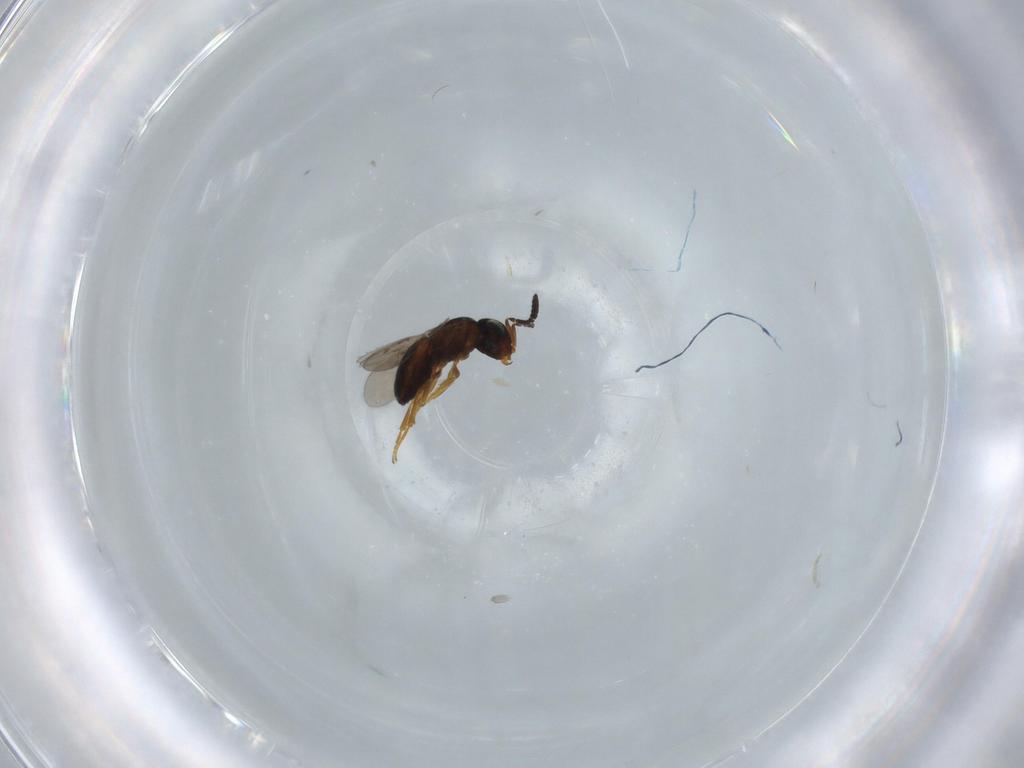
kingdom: Animalia
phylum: Arthropoda
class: Insecta
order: Hymenoptera
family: Scelionidae
